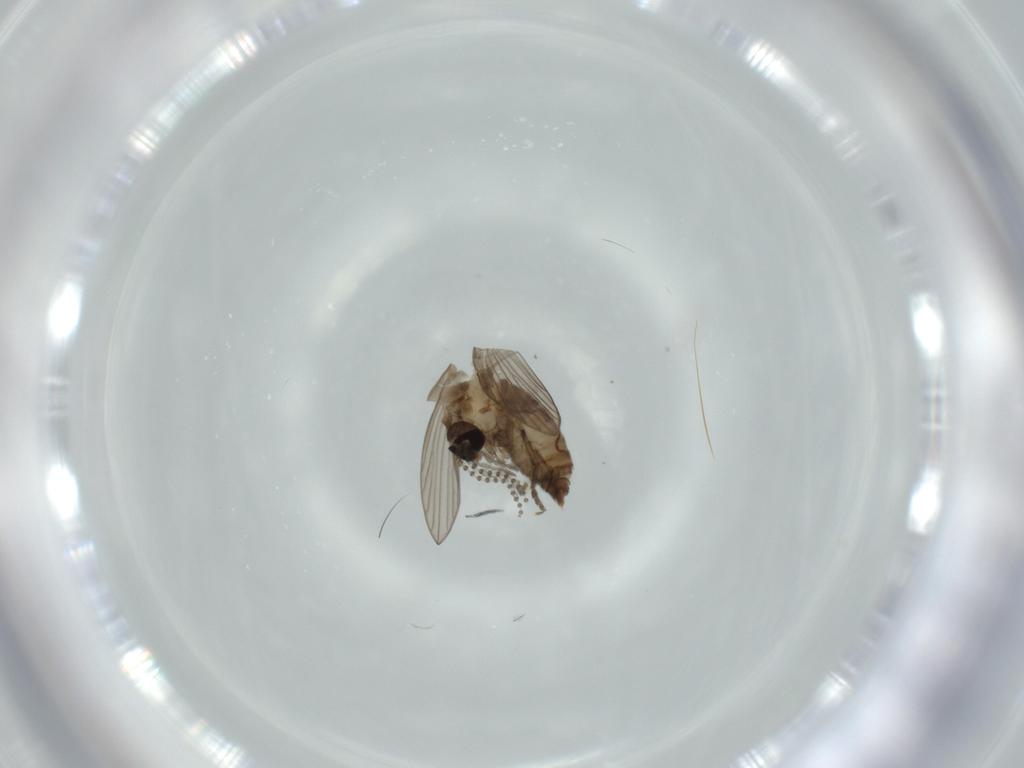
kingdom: Animalia
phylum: Arthropoda
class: Insecta
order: Diptera
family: Psychodidae
